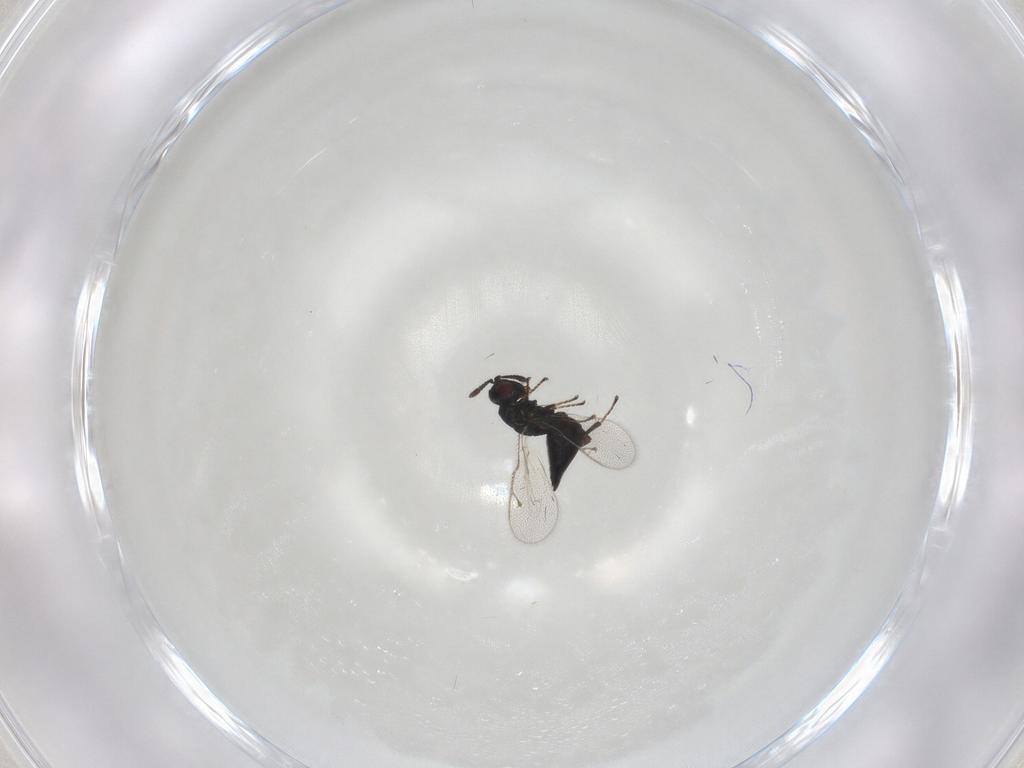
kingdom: Animalia
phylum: Arthropoda
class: Insecta
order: Hymenoptera
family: Pteromalidae
